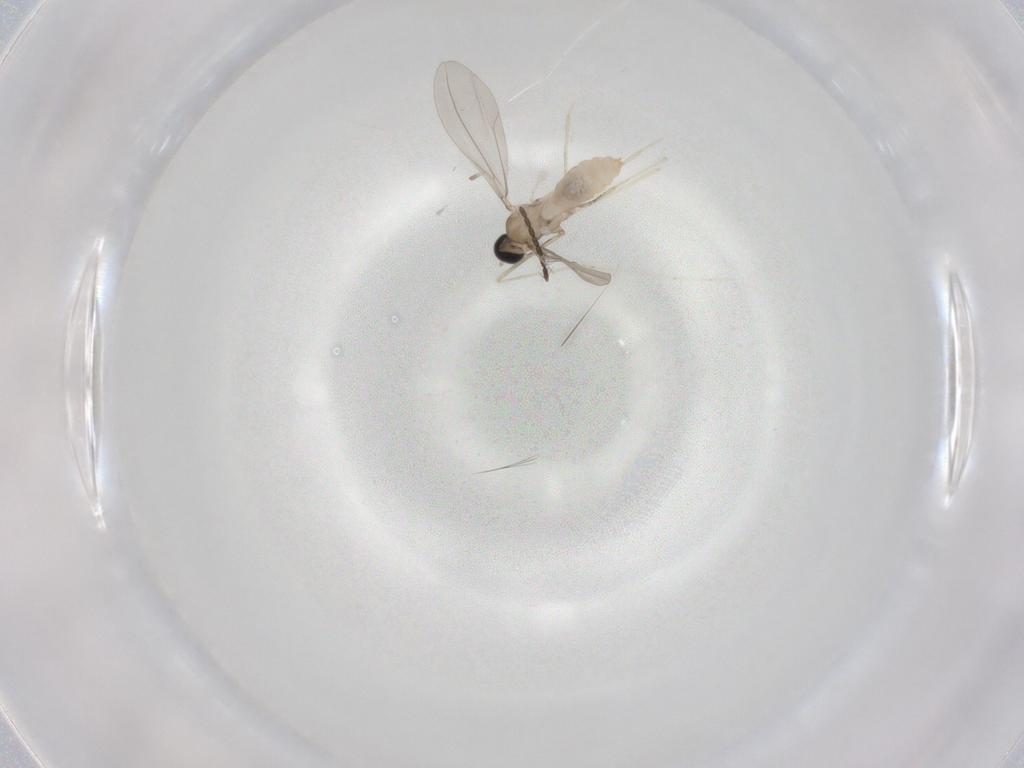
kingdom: Animalia
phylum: Arthropoda
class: Insecta
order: Diptera
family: Cecidomyiidae
